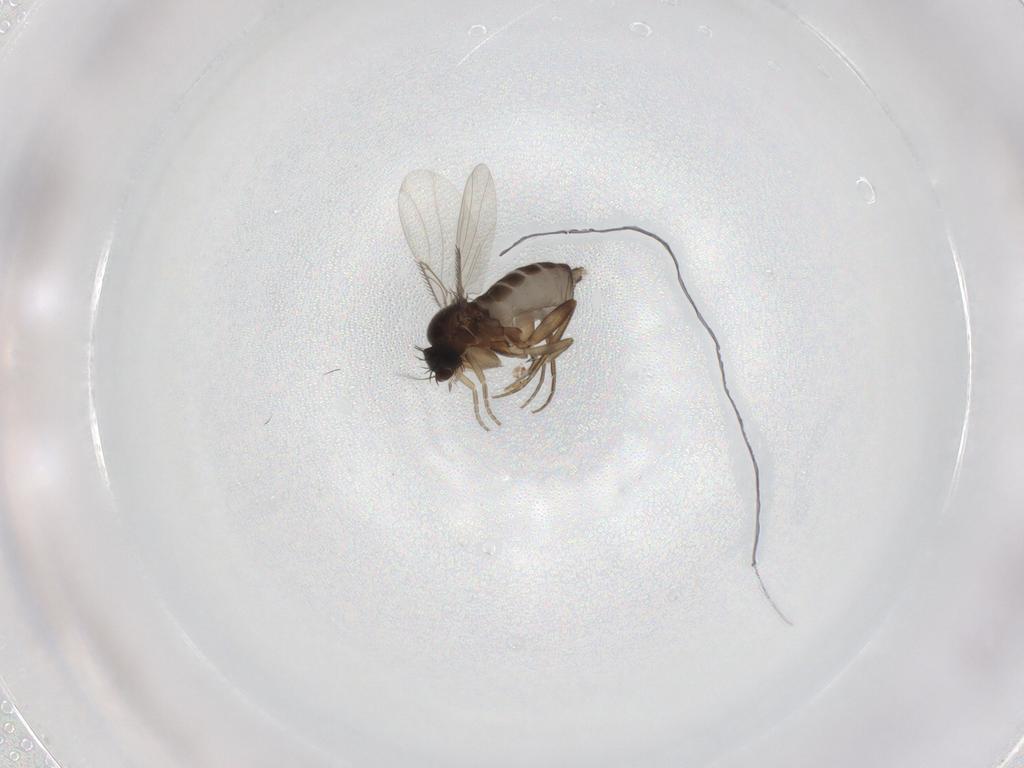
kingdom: Animalia
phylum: Arthropoda
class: Insecta
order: Diptera
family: Phoridae
